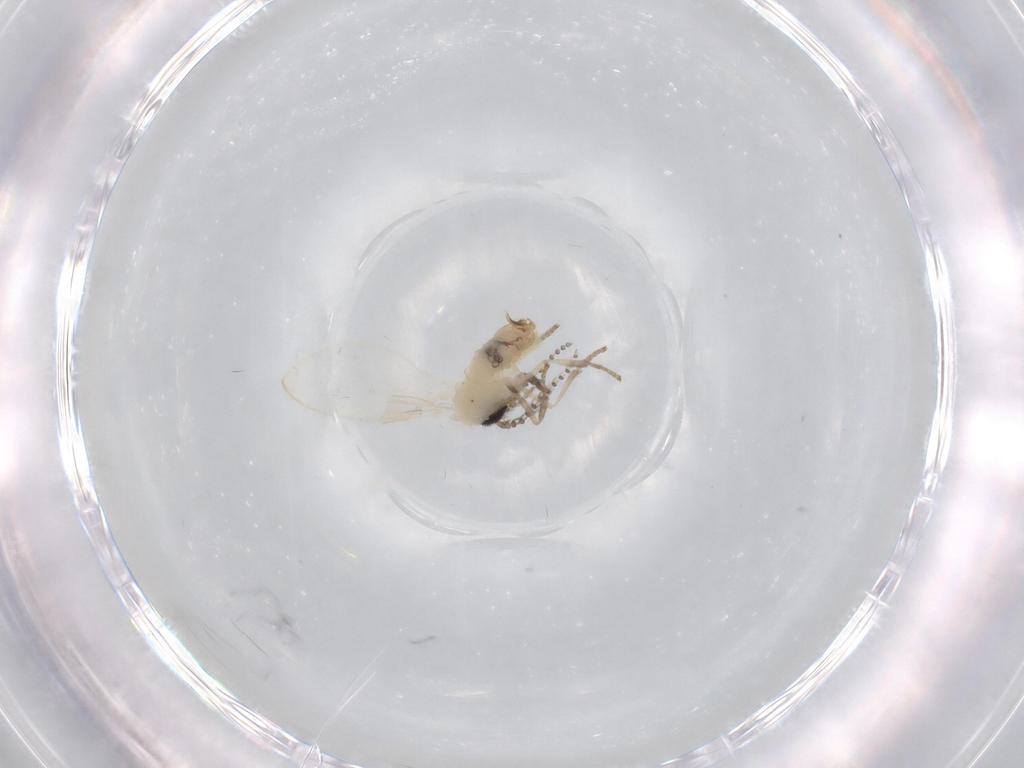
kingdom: Animalia
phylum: Arthropoda
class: Insecta
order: Diptera
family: Psychodidae
